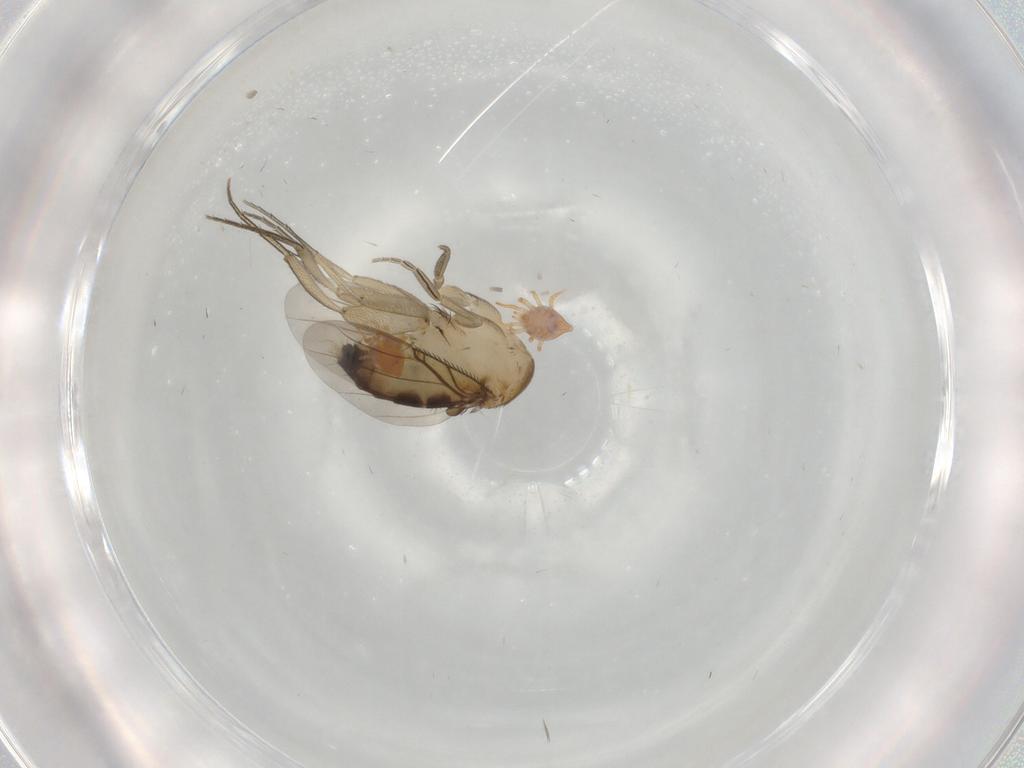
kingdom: Animalia
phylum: Arthropoda
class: Insecta
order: Diptera
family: Phoridae
